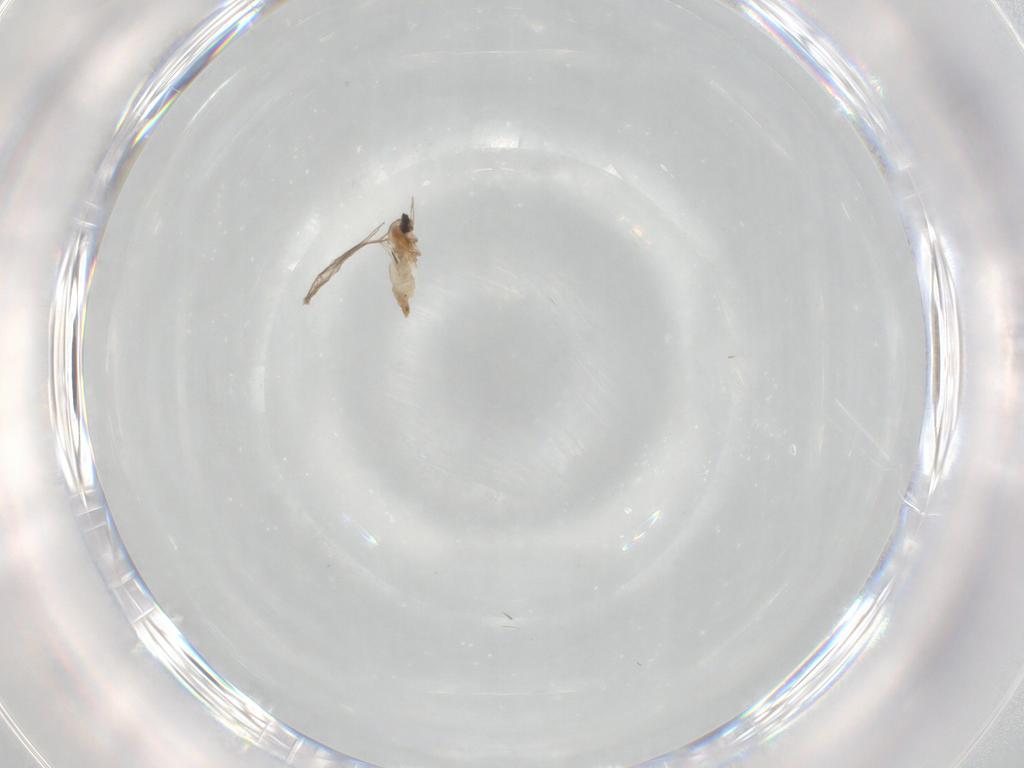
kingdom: Animalia
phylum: Arthropoda
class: Insecta
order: Diptera
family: Cecidomyiidae
